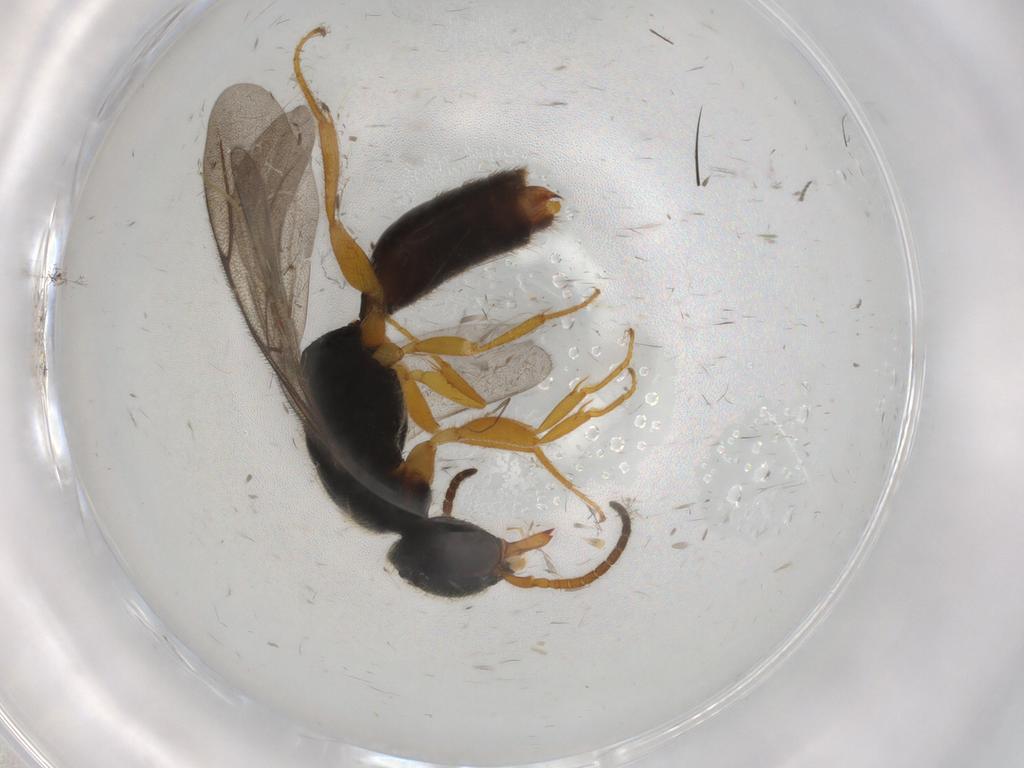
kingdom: Animalia
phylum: Arthropoda
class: Insecta
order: Hymenoptera
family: Bethylidae
